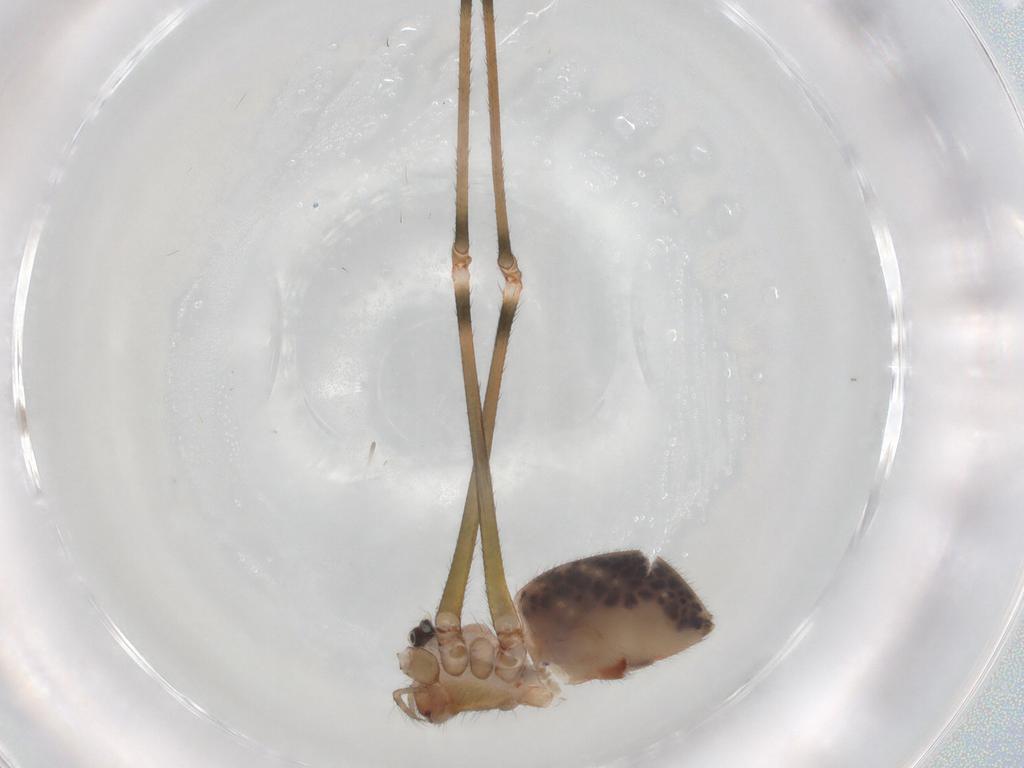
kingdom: Animalia
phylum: Arthropoda
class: Arachnida
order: Araneae
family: Pholcidae
